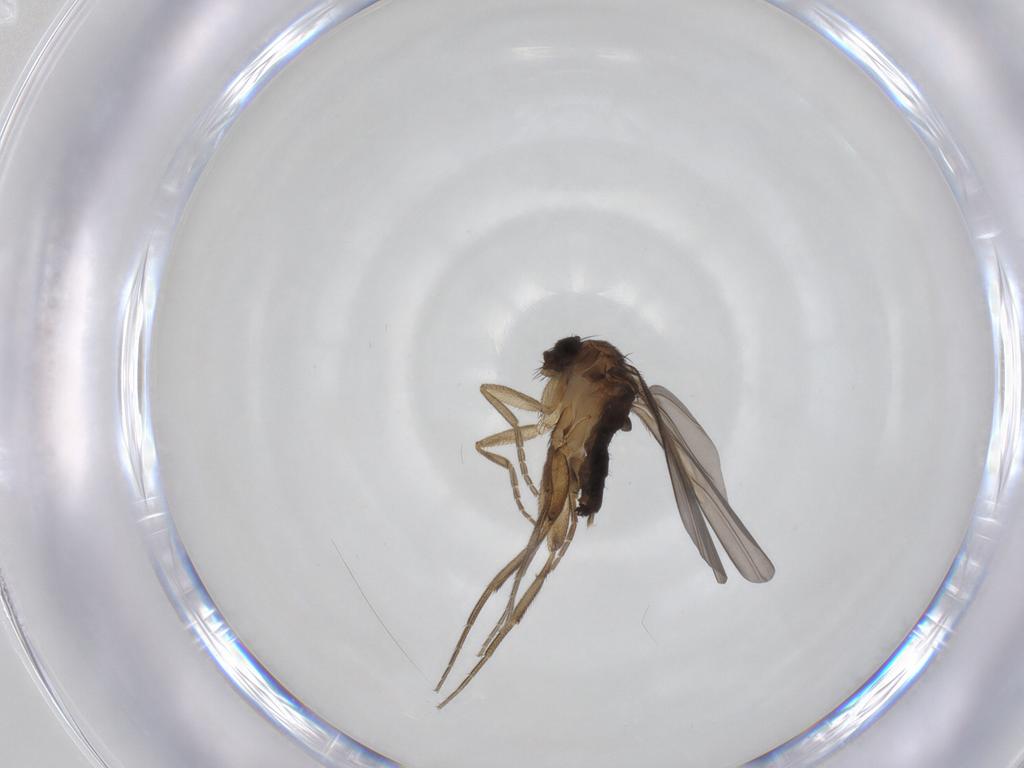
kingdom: Animalia
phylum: Arthropoda
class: Insecta
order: Diptera
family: Phoridae
